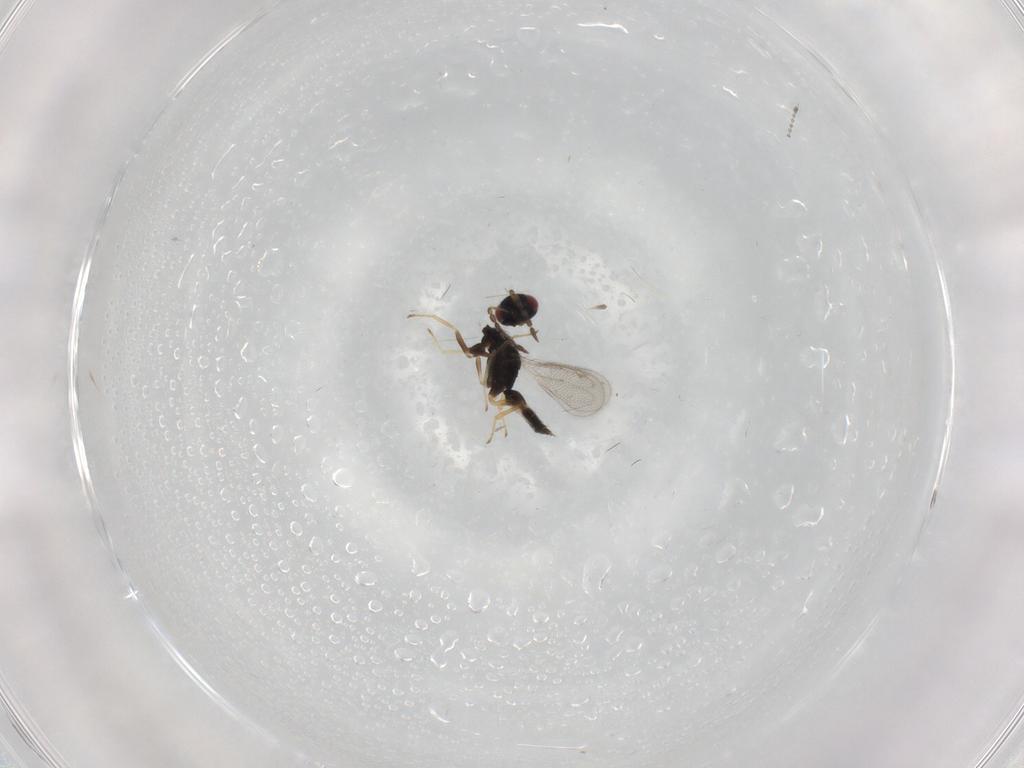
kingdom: Animalia
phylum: Arthropoda
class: Insecta
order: Hymenoptera
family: Eulophidae
